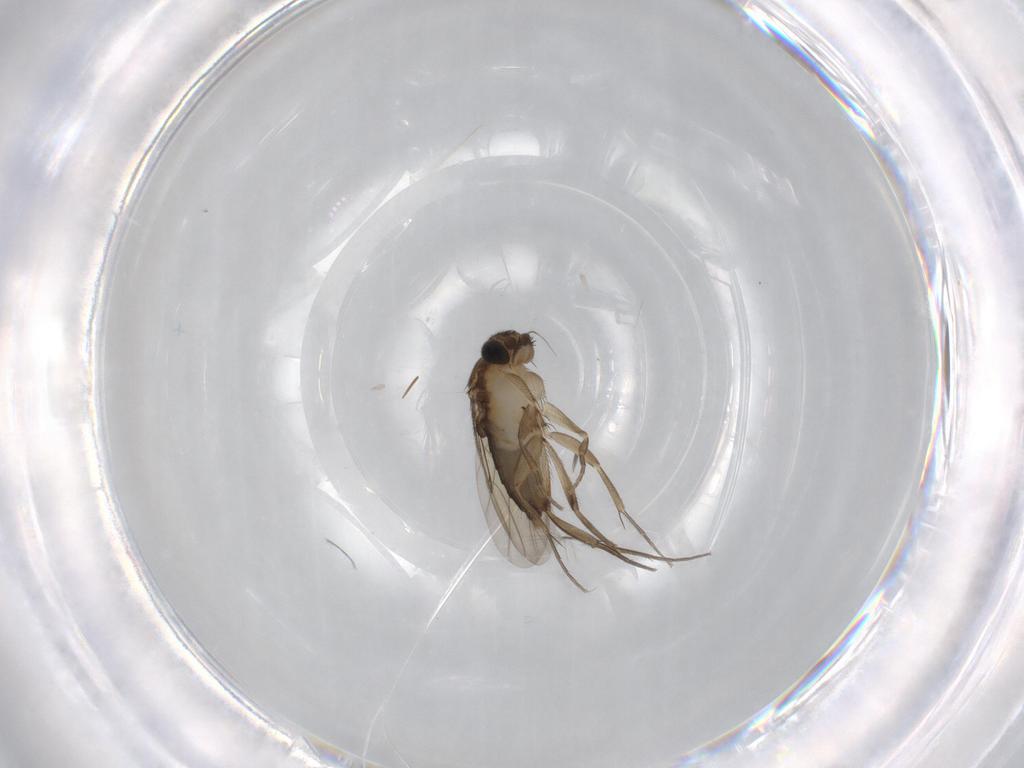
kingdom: Animalia
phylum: Arthropoda
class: Insecta
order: Diptera
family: Phoridae
